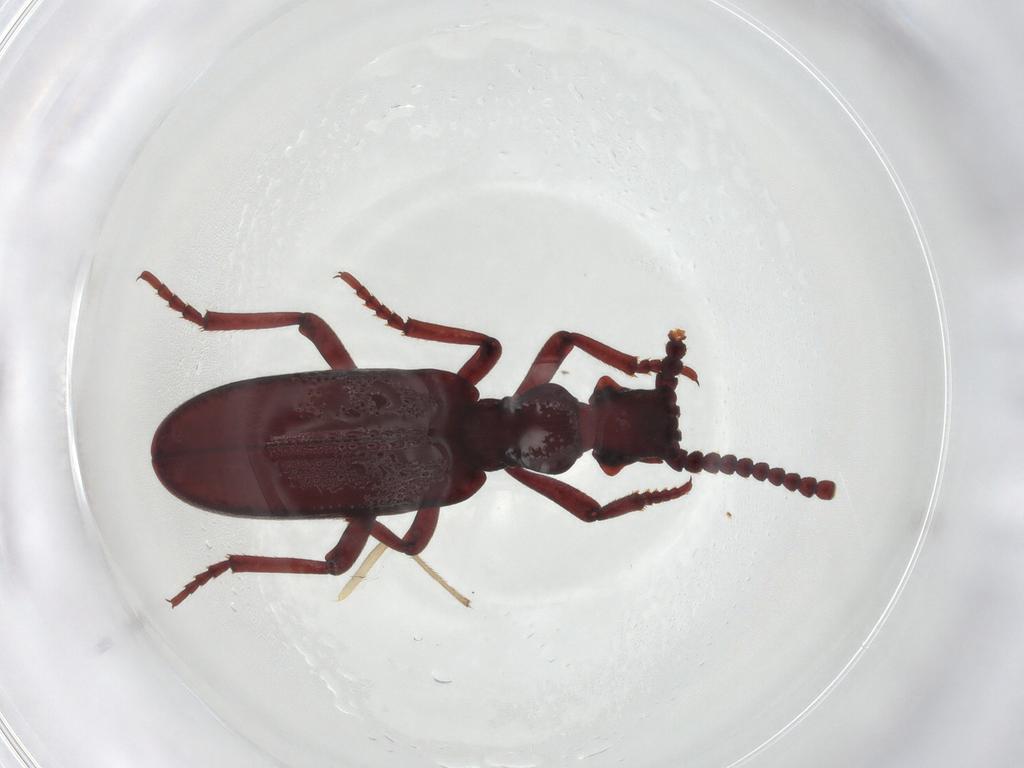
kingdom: Animalia
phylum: Arthropoda
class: Insecta
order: Coleoptera
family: Anthicidae
